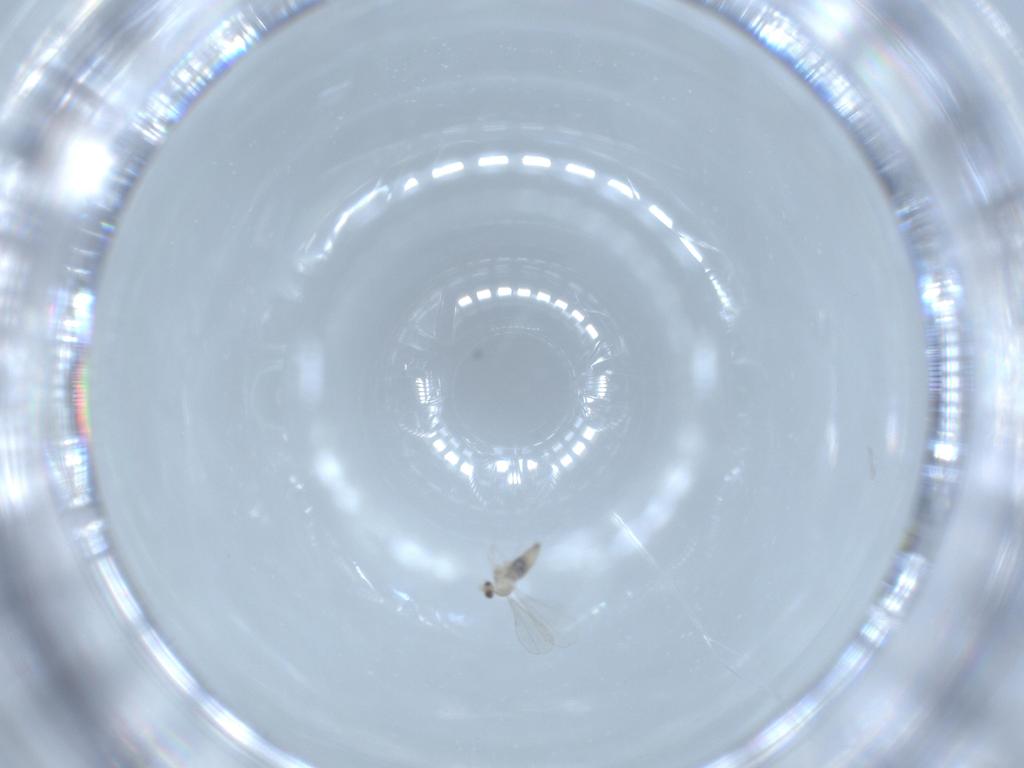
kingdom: Animalia
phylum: Arthropoda
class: Insecta
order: Diptera
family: Cecidomyiidae
